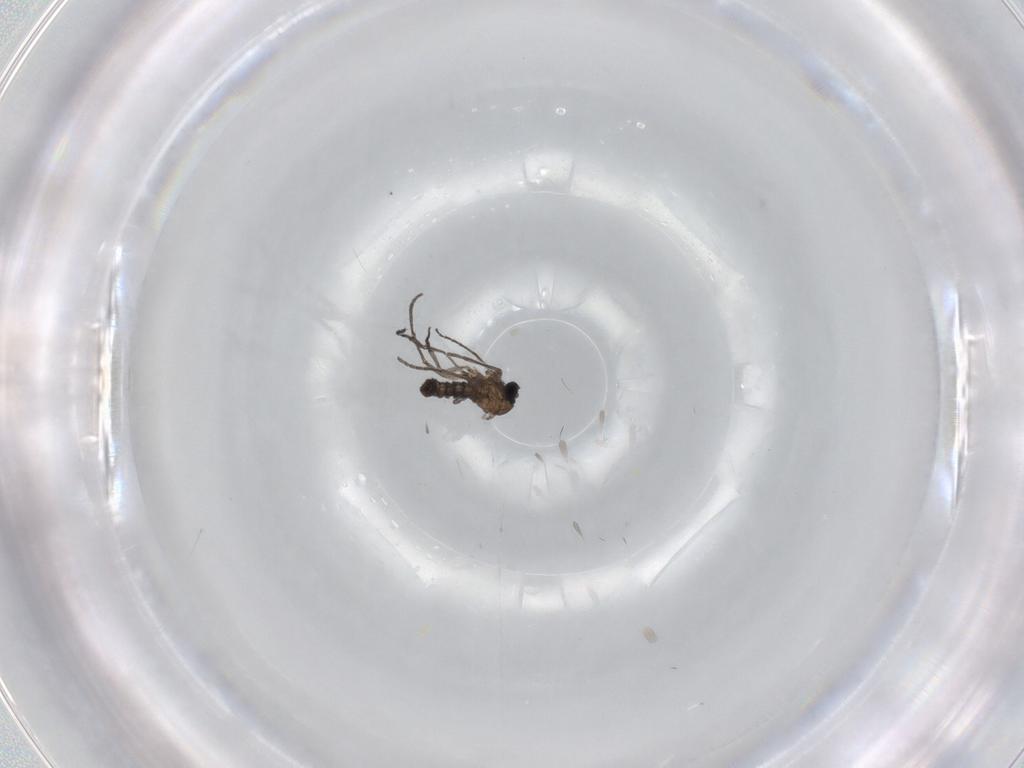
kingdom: Animalia
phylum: Arthropoda
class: Insecta
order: Diptera
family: Sciaridae
